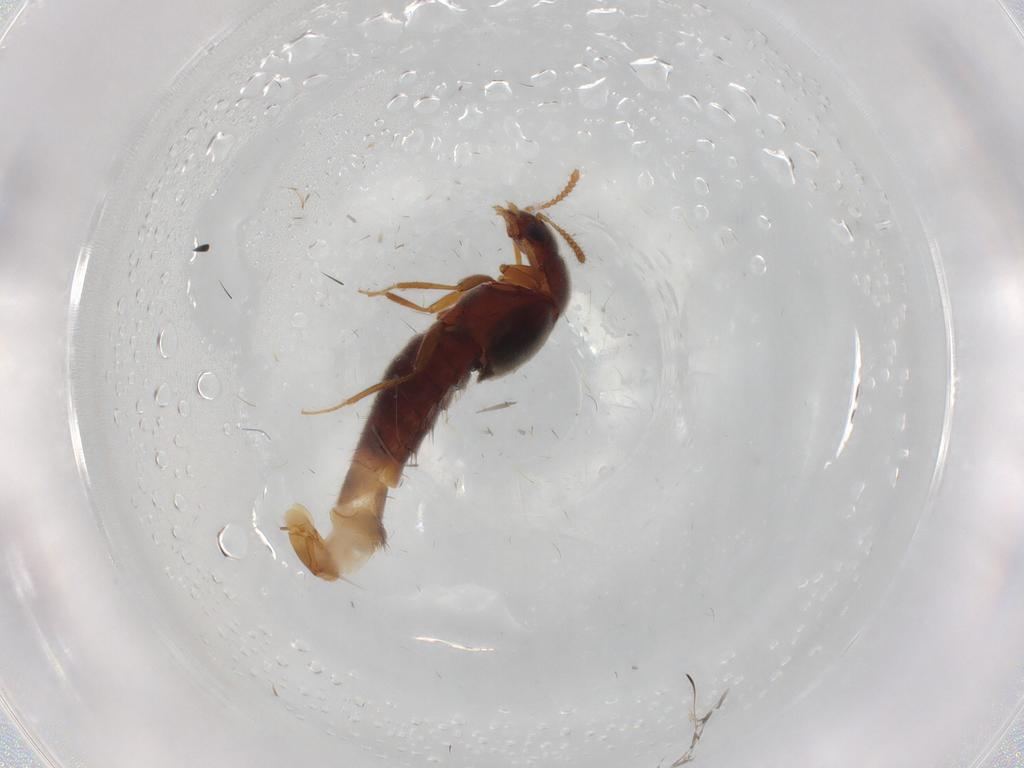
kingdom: Animalia
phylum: Arthropoda
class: Insecta
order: Coleoptera
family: Staphylinidae
